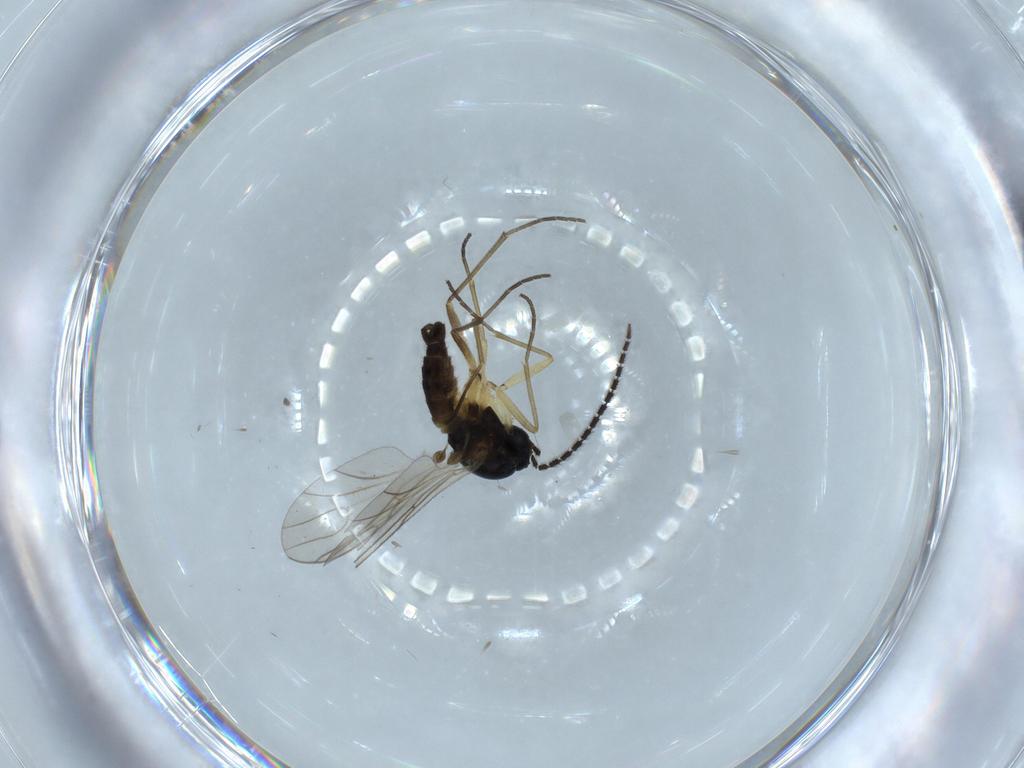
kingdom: Animalia
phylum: Arthropoda
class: Insecta
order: Diptera
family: Sciaridae
